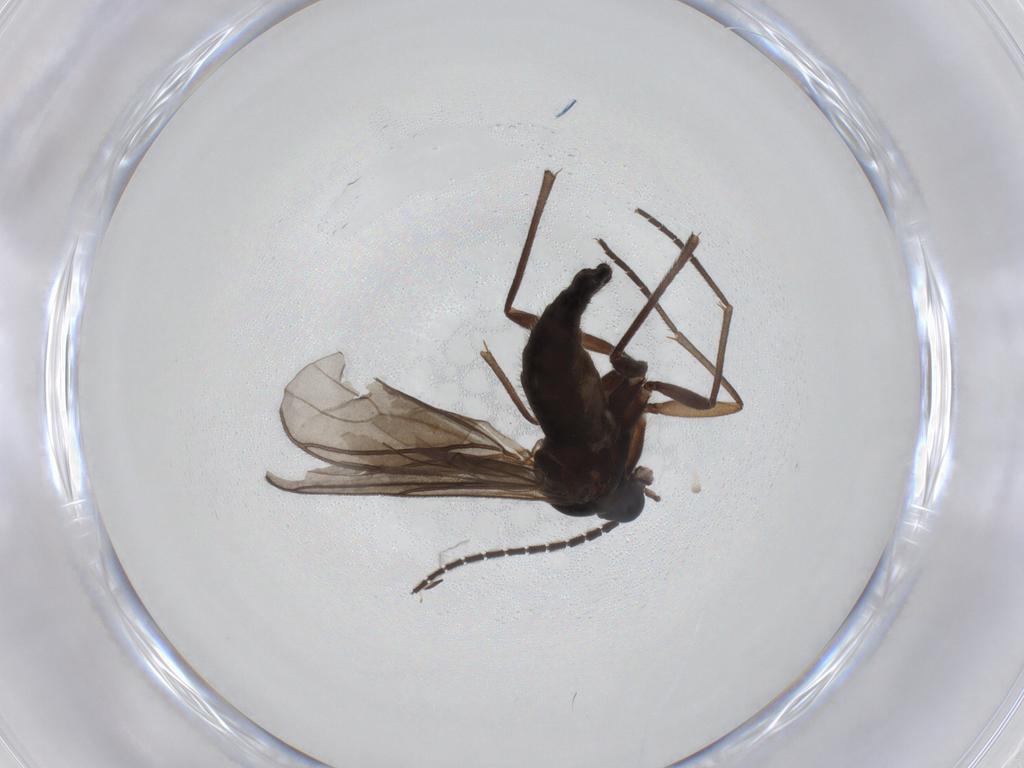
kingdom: Animalia
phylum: Arthropoda
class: Insecta
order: Diptera
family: Sciaridae
